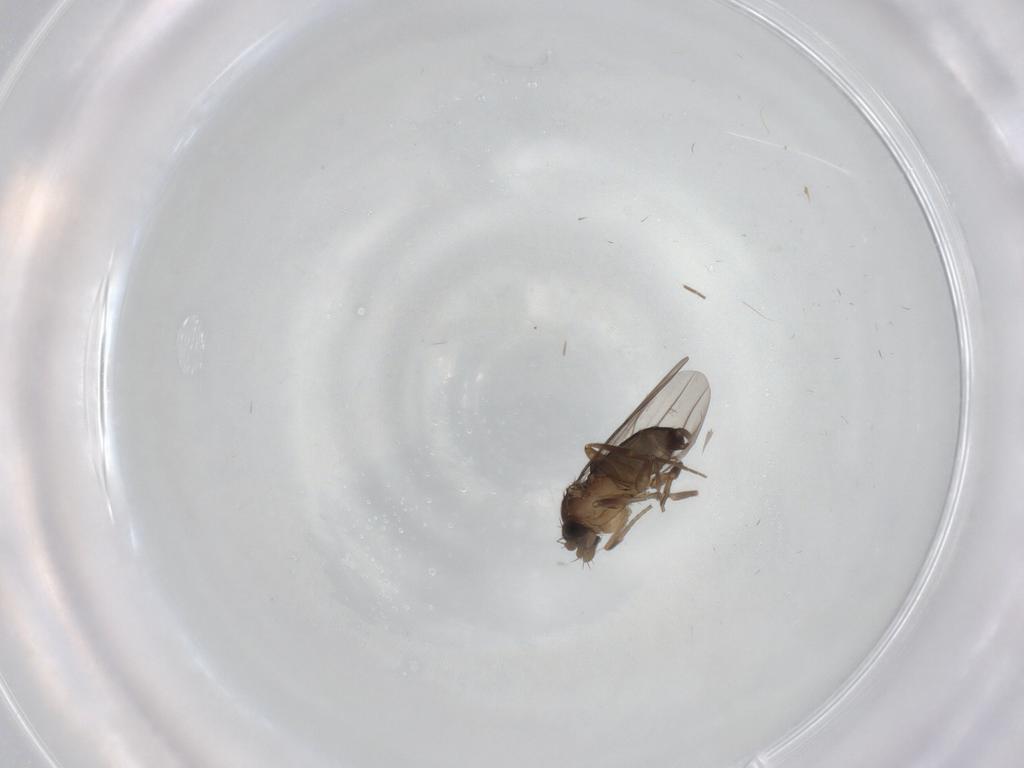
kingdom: Animalia
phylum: Arthropoda
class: Insecta
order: Diptera
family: Phoridae
